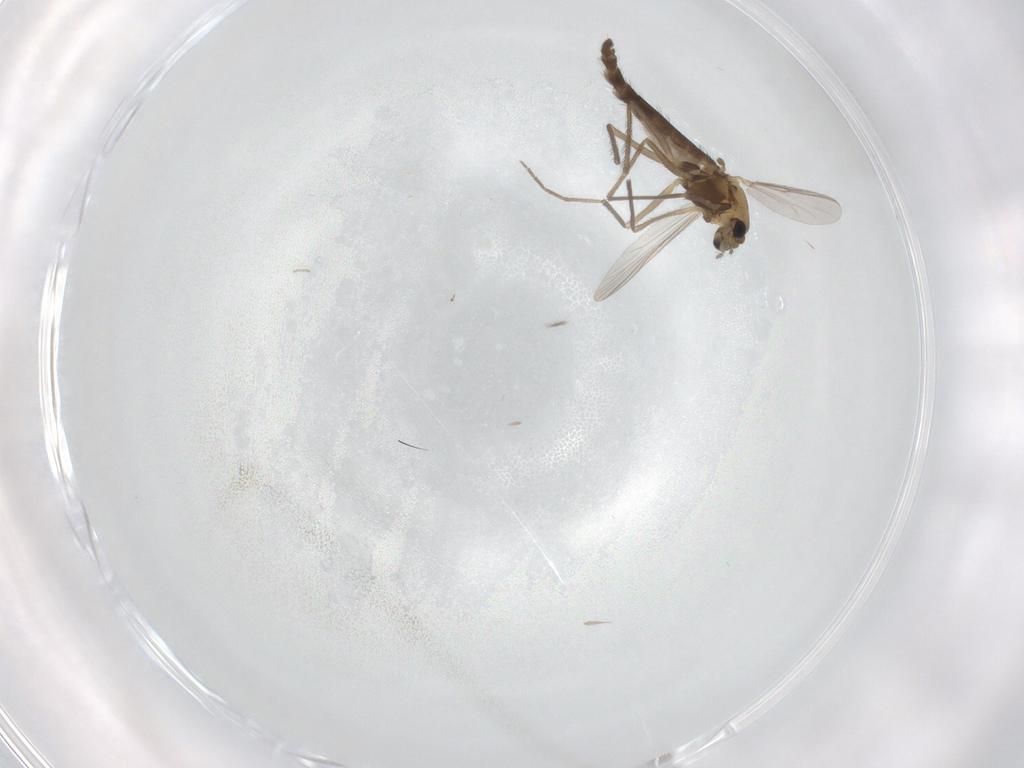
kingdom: Animalia
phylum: Arthropoda
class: Insecta
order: Diptera
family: Chironomidae
